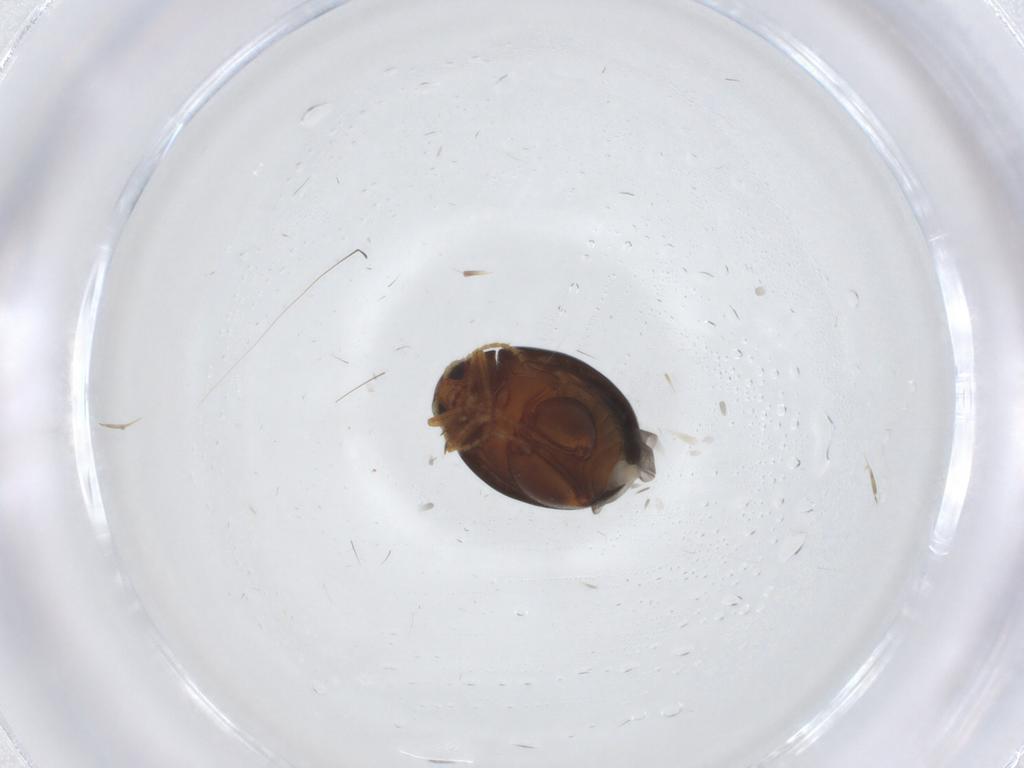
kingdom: Animalia
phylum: Arthropoda
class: Insecta
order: Coleoptera
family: Chrysomelidae
